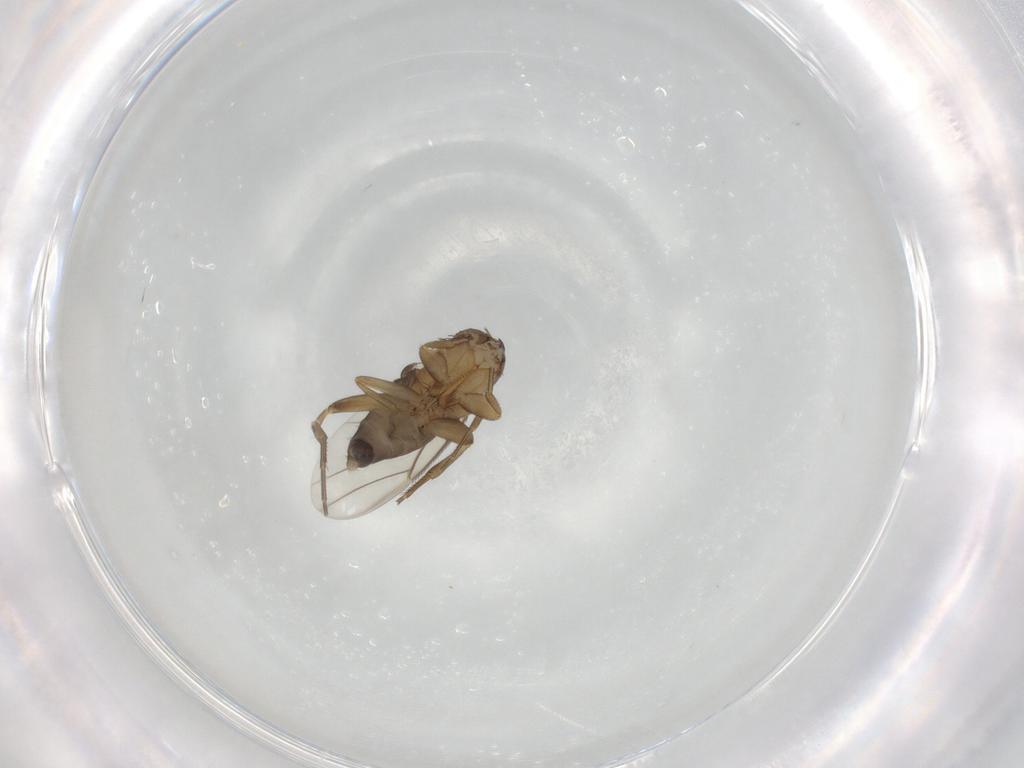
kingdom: Animalia
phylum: Arthropoda
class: Insecta
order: Diptera
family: Phoridae
